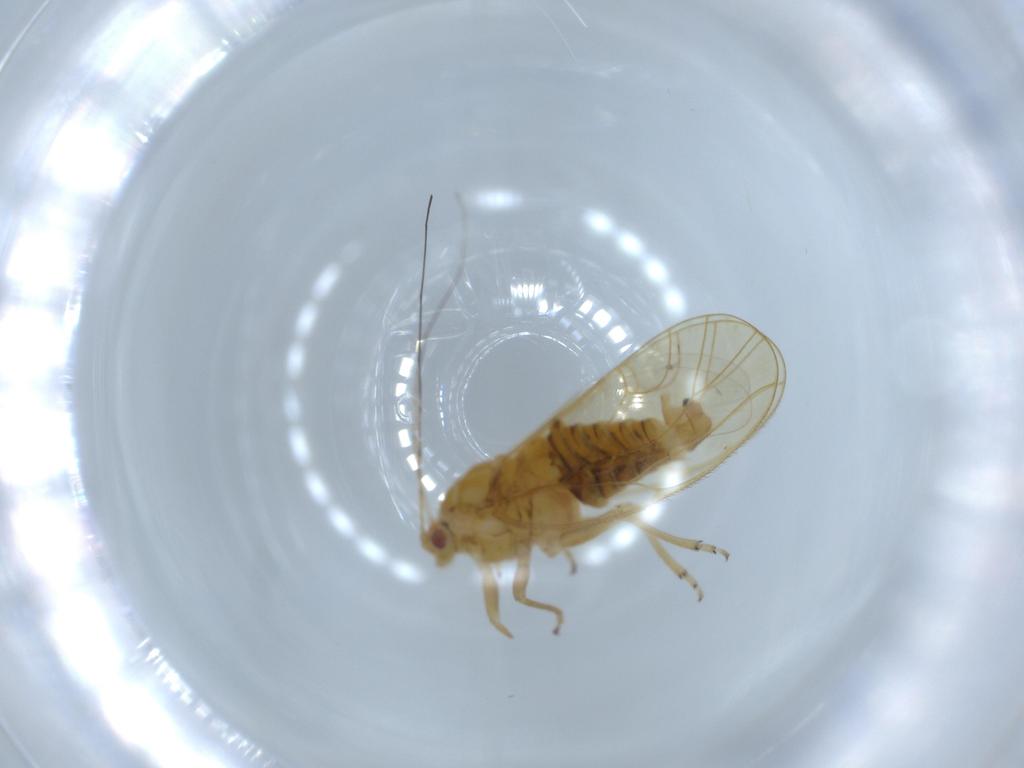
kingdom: Animalia
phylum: Arthropoda
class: Insecta
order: Hemiptera
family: Psyllidae
